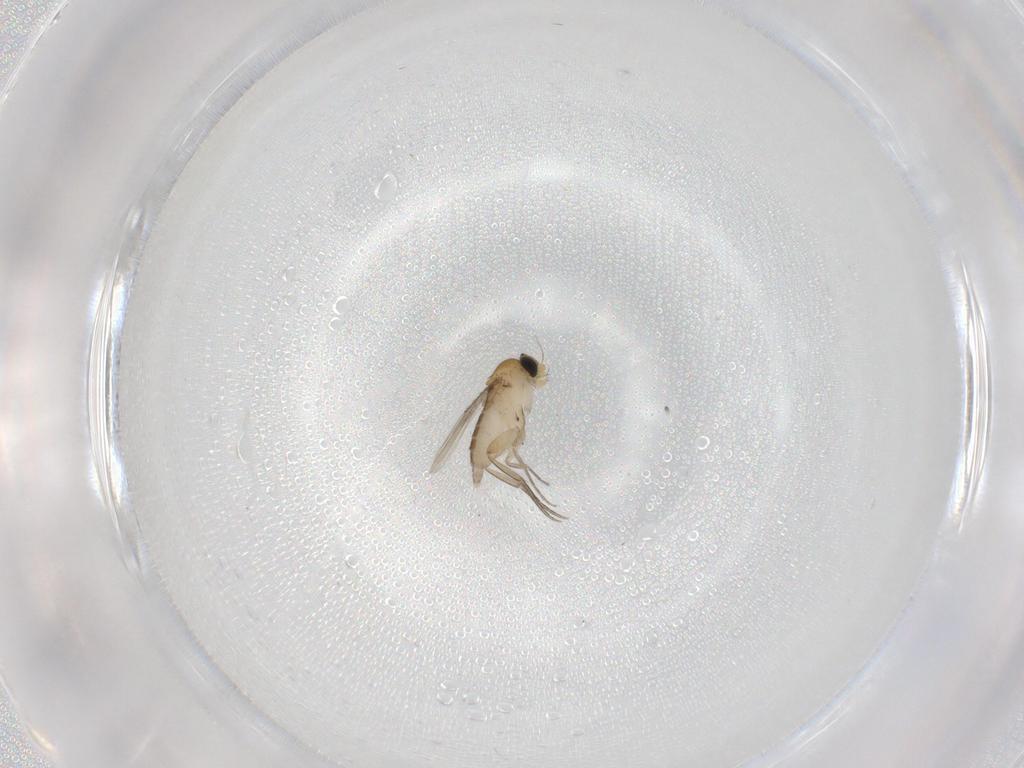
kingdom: Animalia
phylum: Arthropoda
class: Insecta
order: Diptera
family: Phoridae
